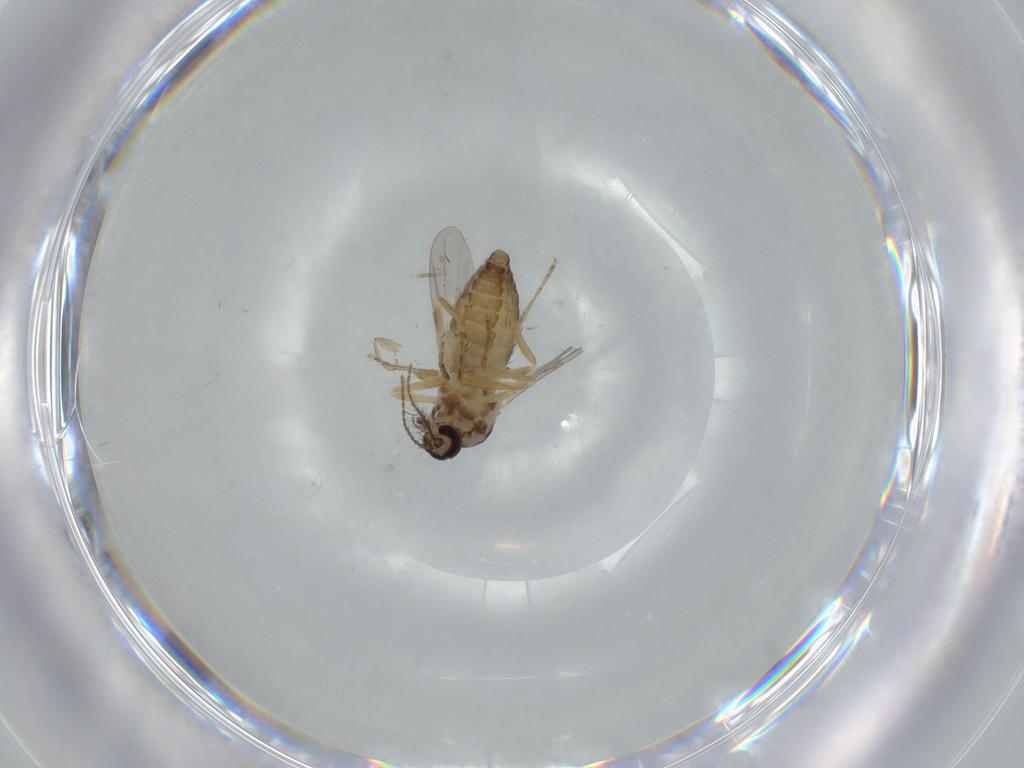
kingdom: Animalia
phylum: Arthropoda
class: Insecta
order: Diptera
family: Ceratopogonidae
